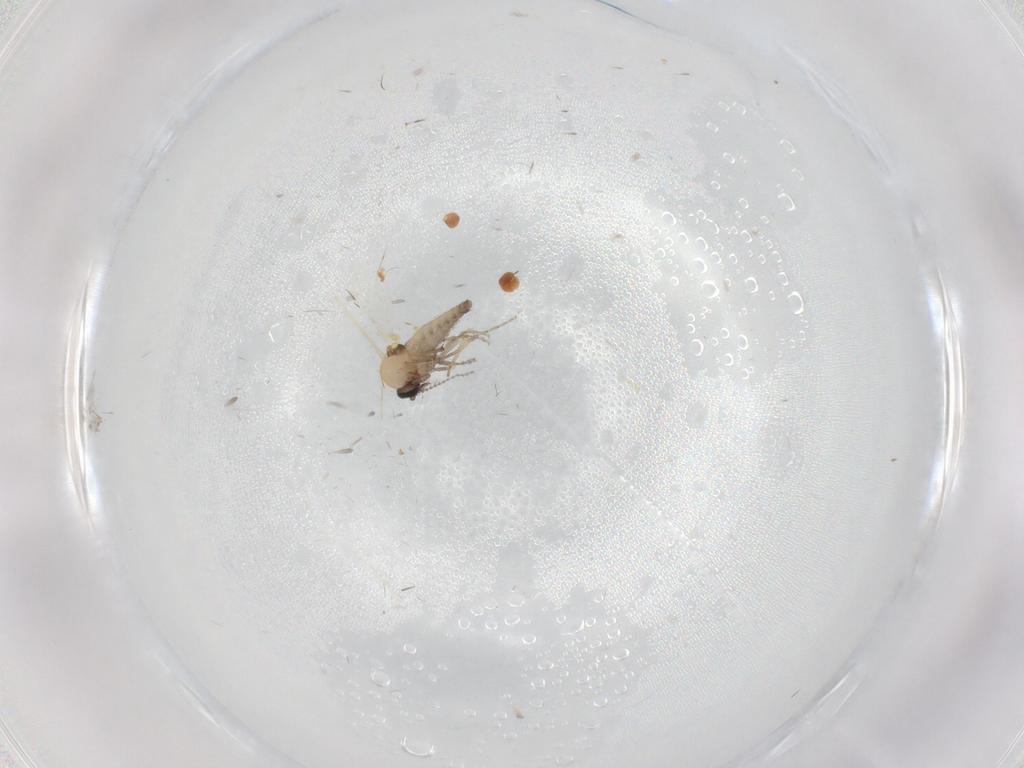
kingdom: Animalia
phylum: Arthropoda
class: Insecta
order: Diptera
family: Ceratopogonidae
